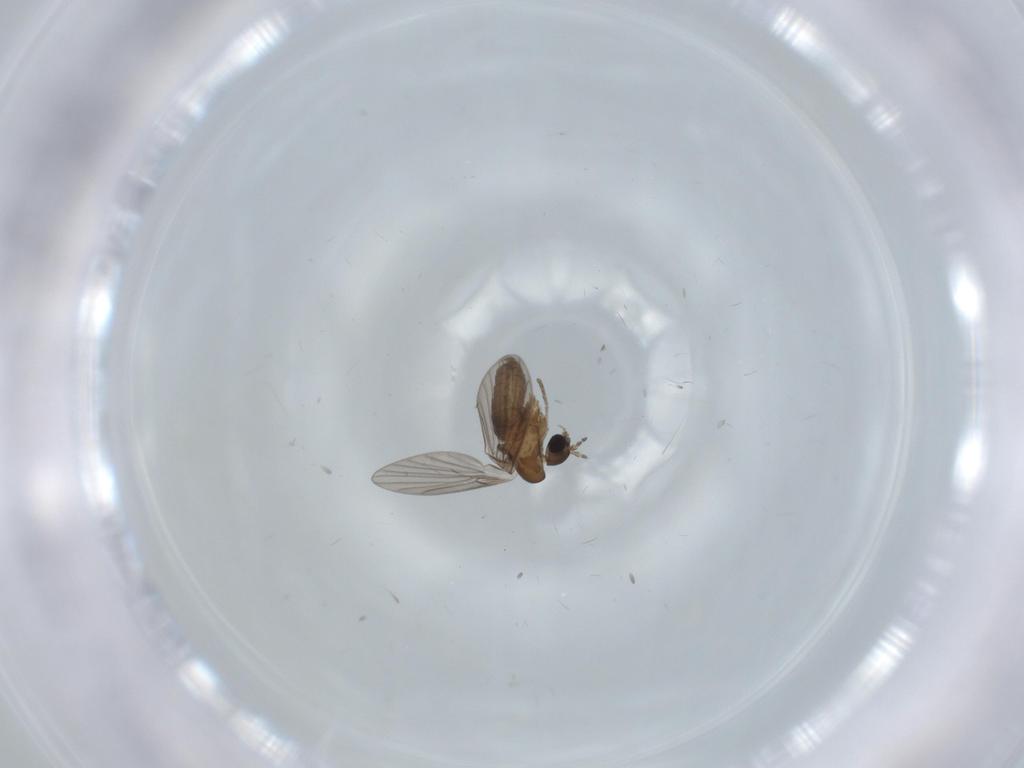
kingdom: Animalia
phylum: Arthropoda
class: Insecta
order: Diptera
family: Psychodidae
